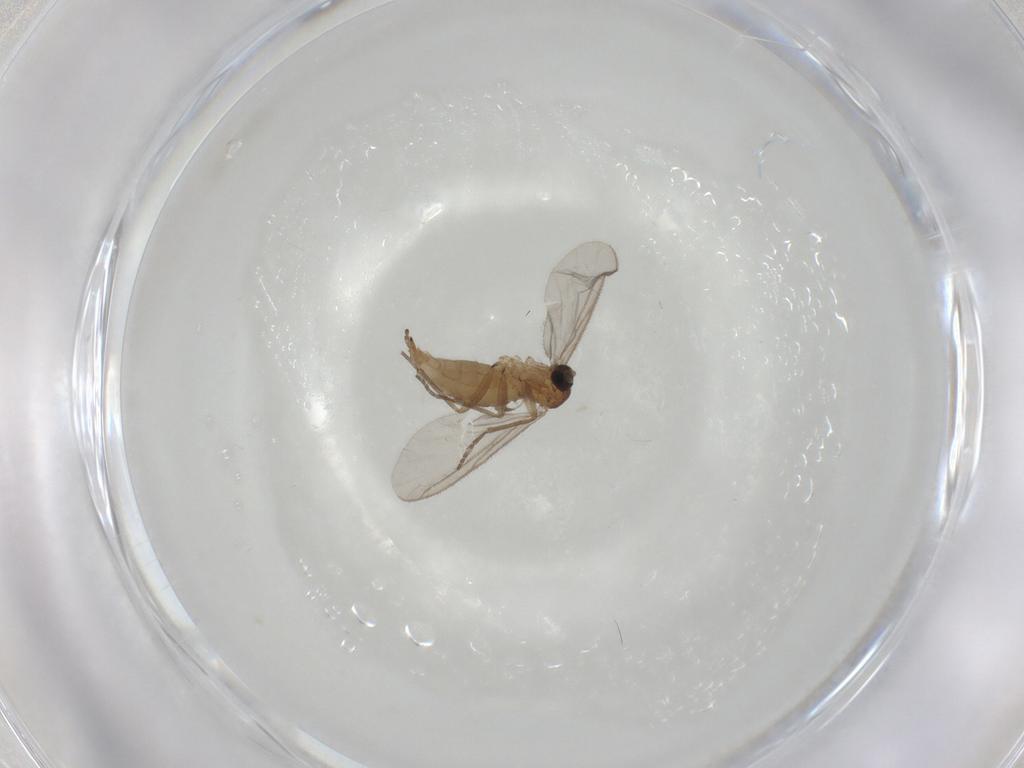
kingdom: Animalia
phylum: Arthropoda
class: Insecta
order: Diptera
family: Sciaridae
